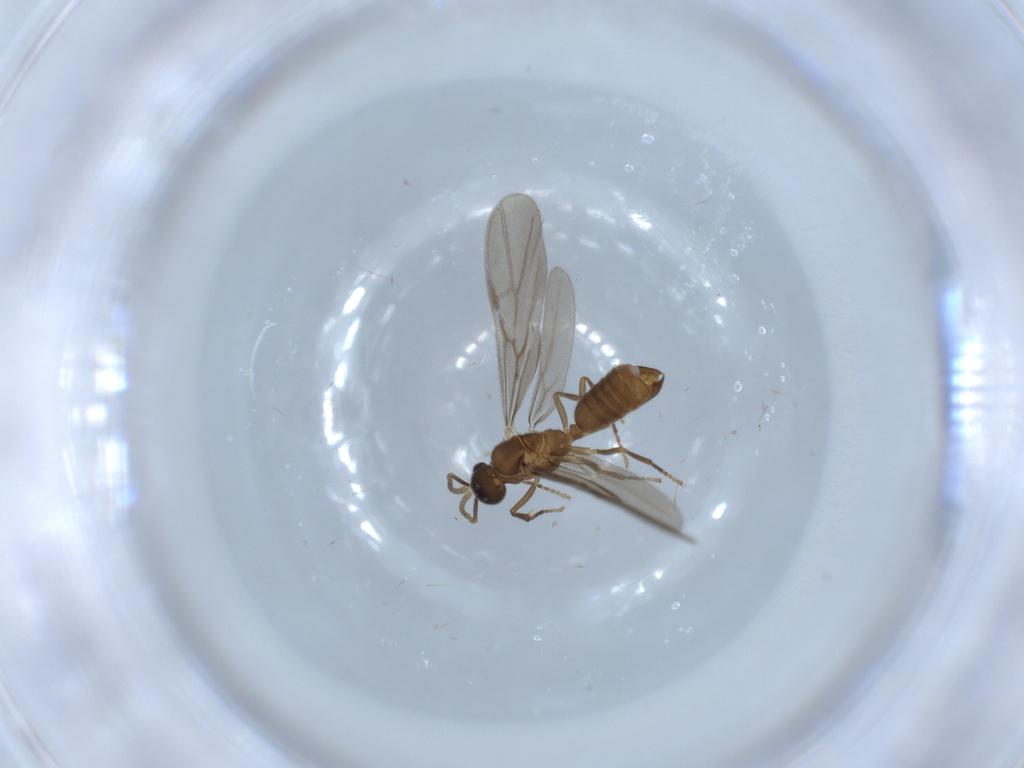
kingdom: Animalia
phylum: Arthropoda
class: Insecta
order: Hymenoptera
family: Formicidae
